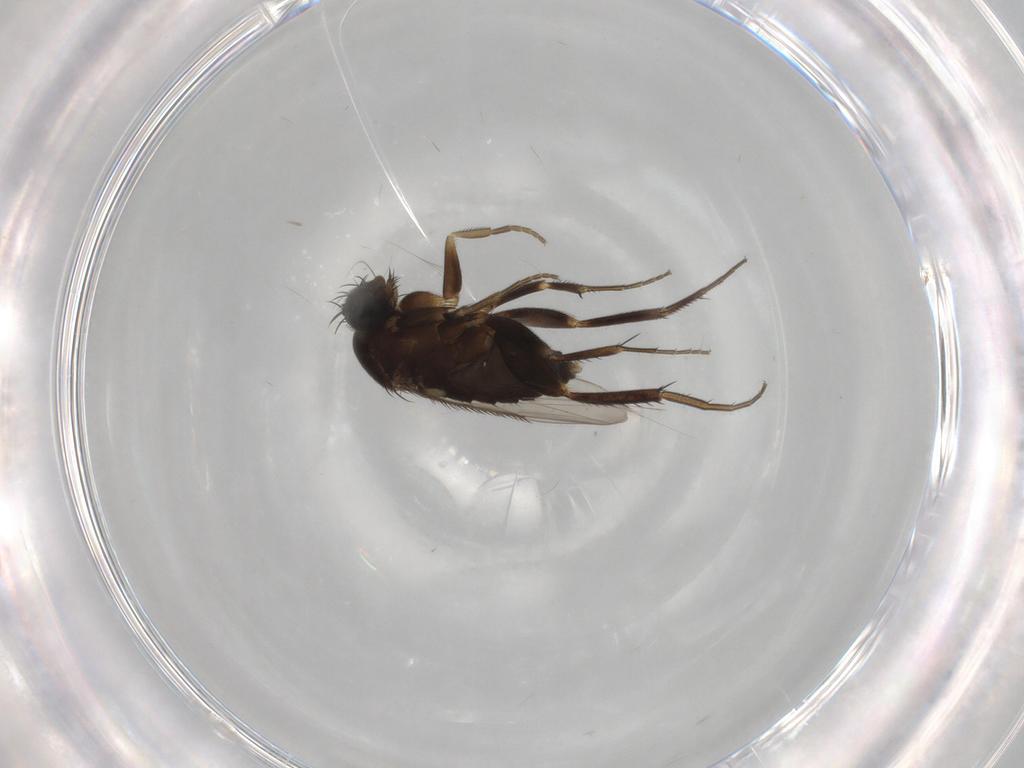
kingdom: Animalia
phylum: Arthropoda
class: Insecta
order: Diptera
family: Phoridae
